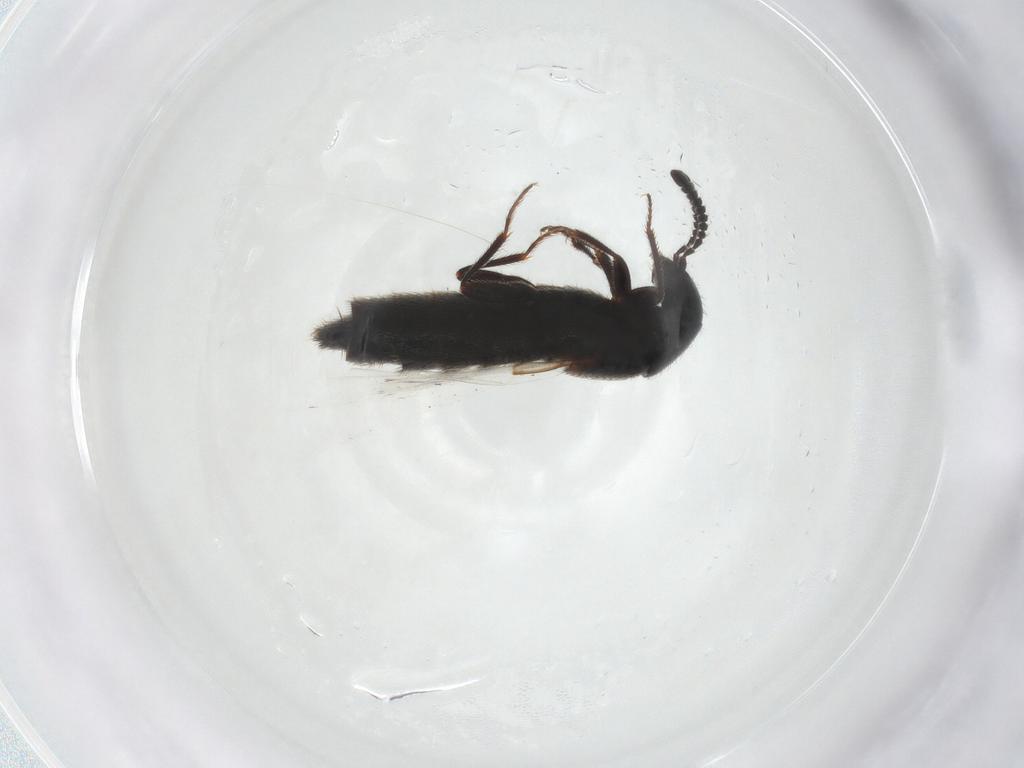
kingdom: Animalia
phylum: Arthropoda
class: Insecta
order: Coleoptera
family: Staphylinidae
